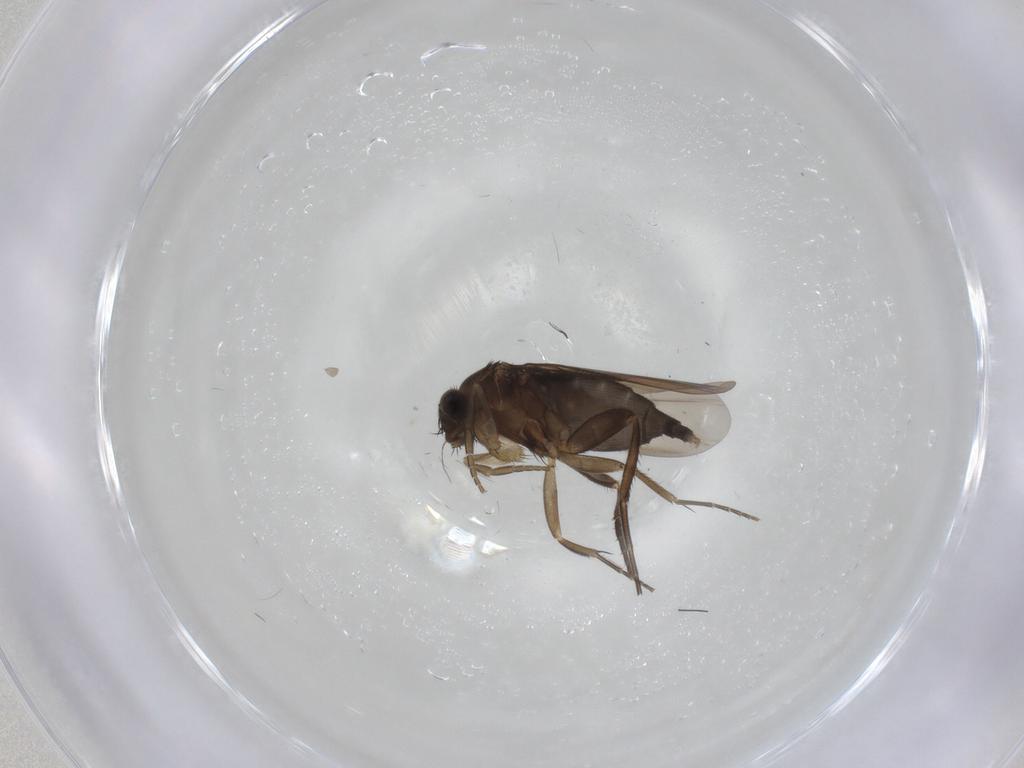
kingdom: Animalia
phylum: Arthropoda
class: Insecta
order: Diptera
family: Phoridae
